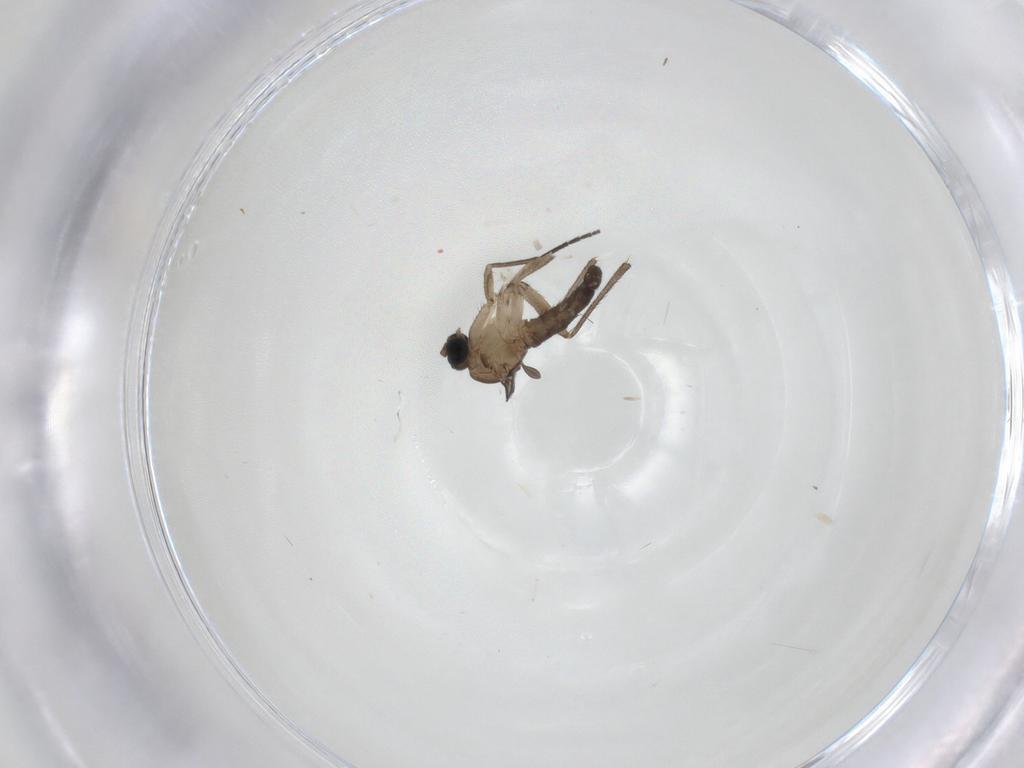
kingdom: Animalia
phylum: Arthropoda
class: Insecta
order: Diptera
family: Sciaridae
